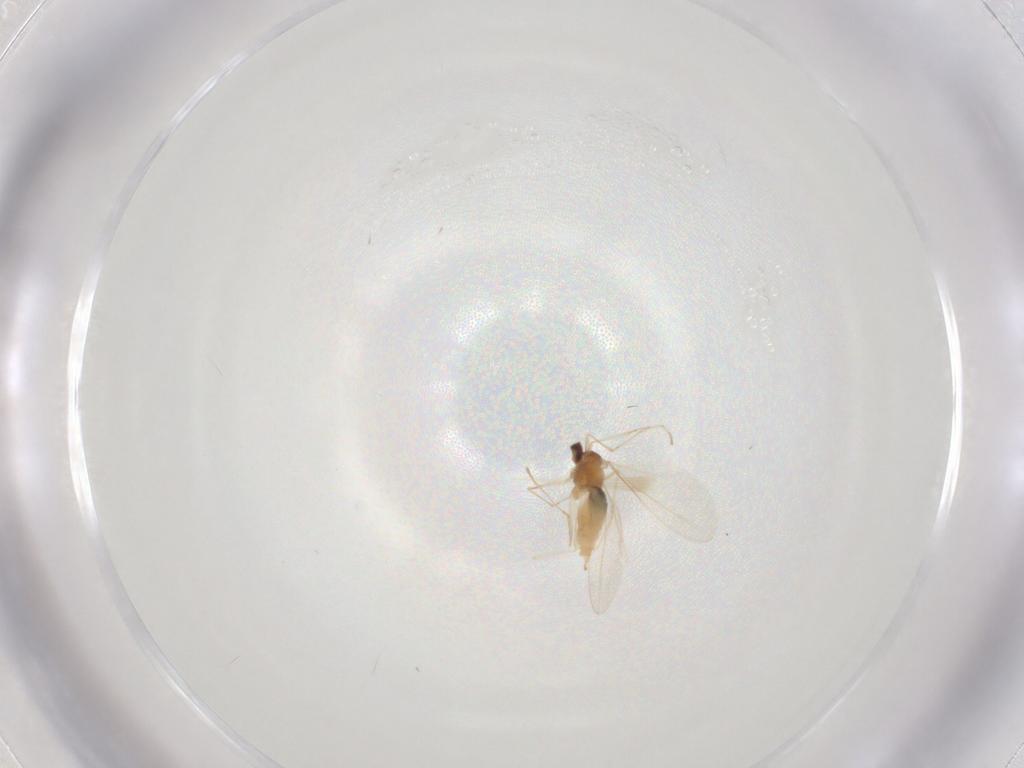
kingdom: Animalia
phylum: Arthropoda
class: Insecta
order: Diptera
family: Cecidomyiidae
